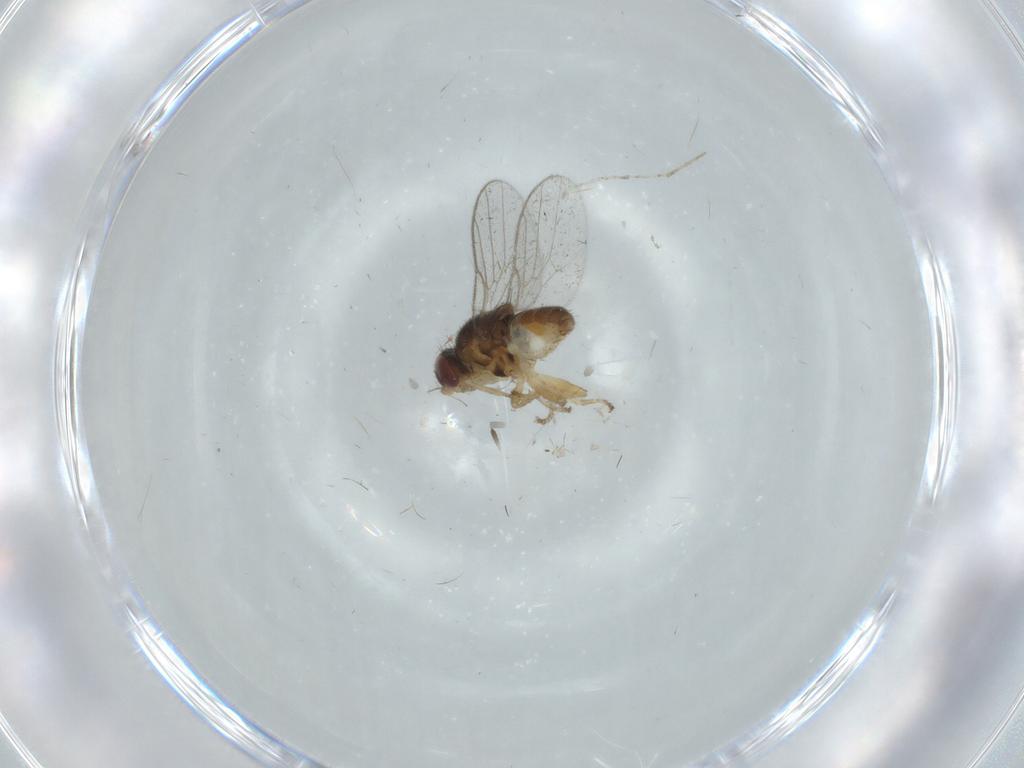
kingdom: Animalia
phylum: Arthropoda
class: Insecta
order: Diptera
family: Chloropidae
